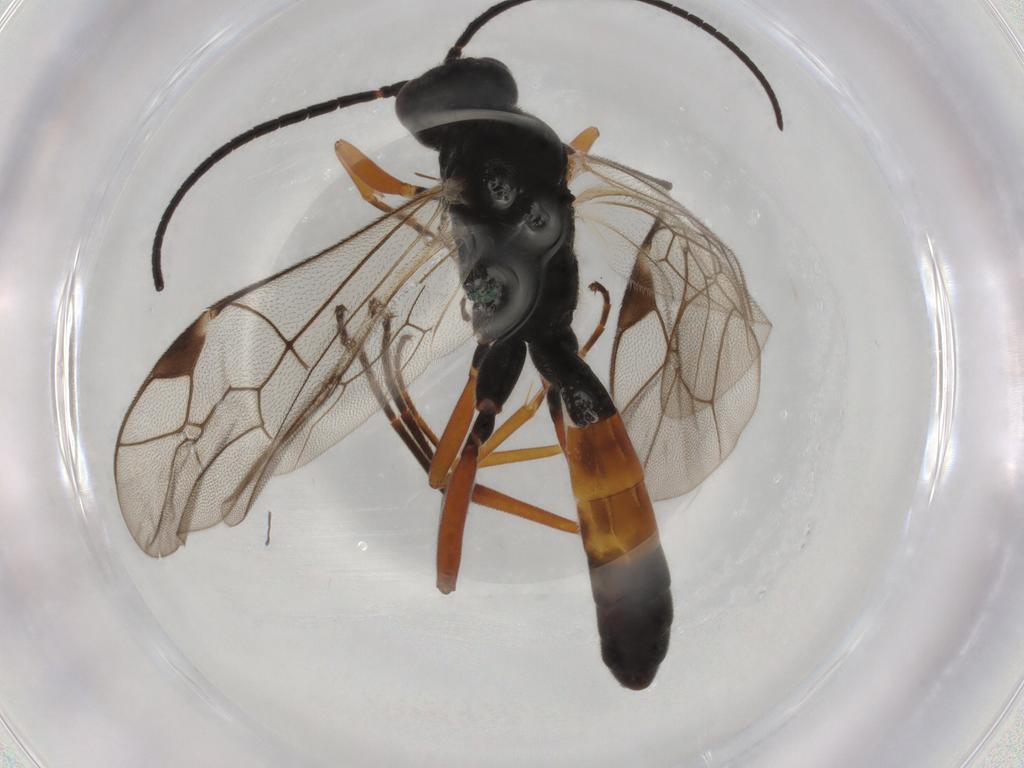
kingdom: Animalia
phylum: Arthropoda
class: Insecta
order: Hymenoptera
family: Formicidae
